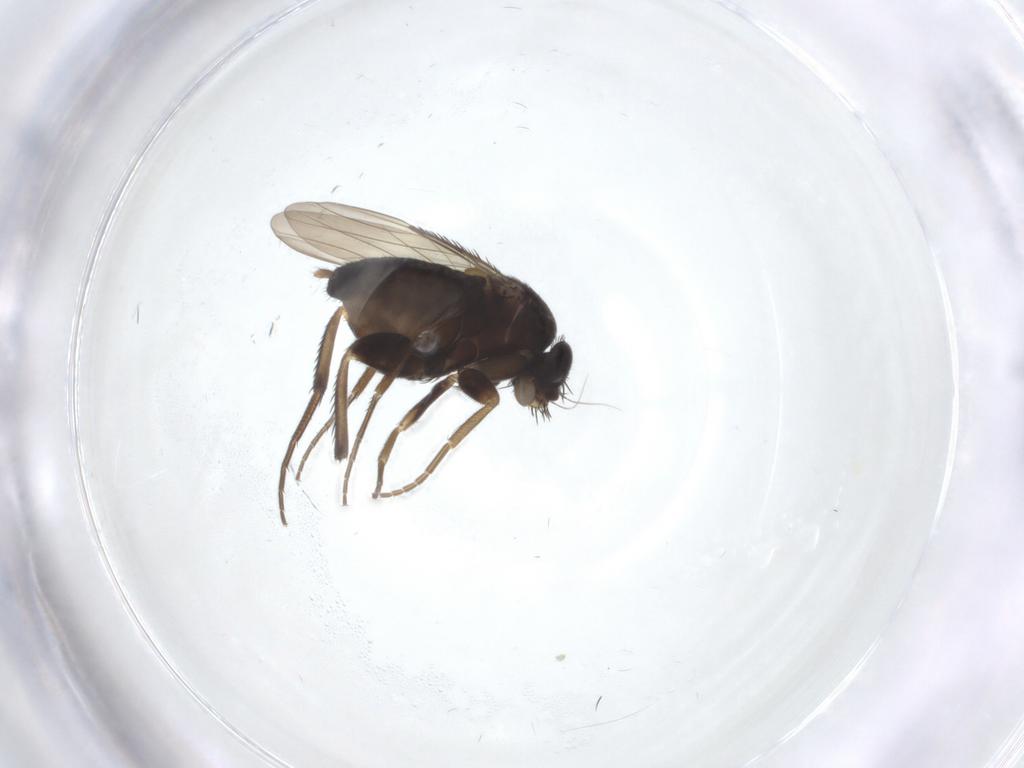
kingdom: Animalia
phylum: Arthropoda
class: Insecta
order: Diptera
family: Phoridae
